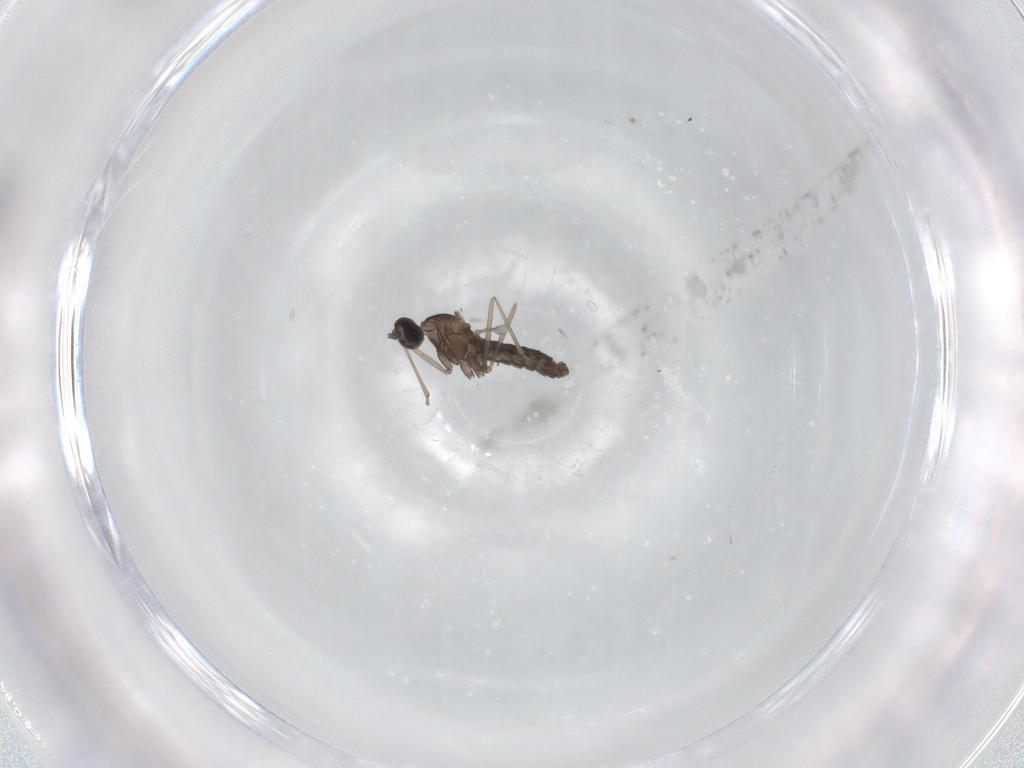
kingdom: Animalia
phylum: Arthropoda
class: Insecta
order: Diptera
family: Cecidomyiidae
